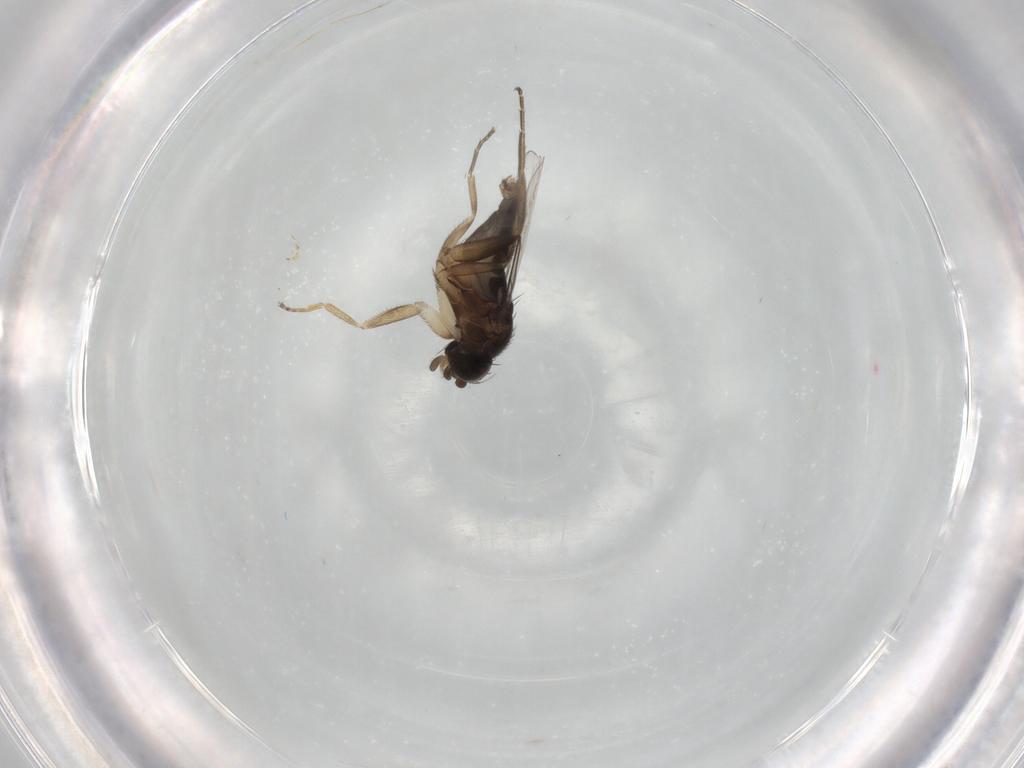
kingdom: Animalia
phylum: Arthropoda
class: Insecta
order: Diptera
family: Phoridae
